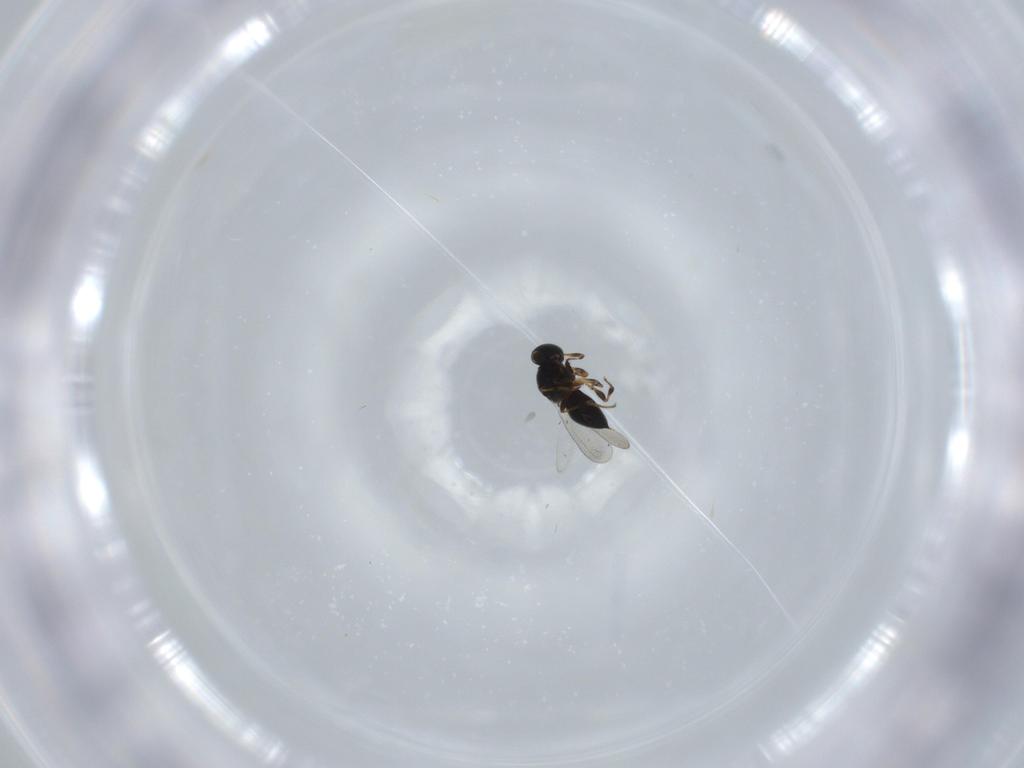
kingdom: Animalia
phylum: Arthropoda
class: Insecta
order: Hymenoptera
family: Platygastridae
